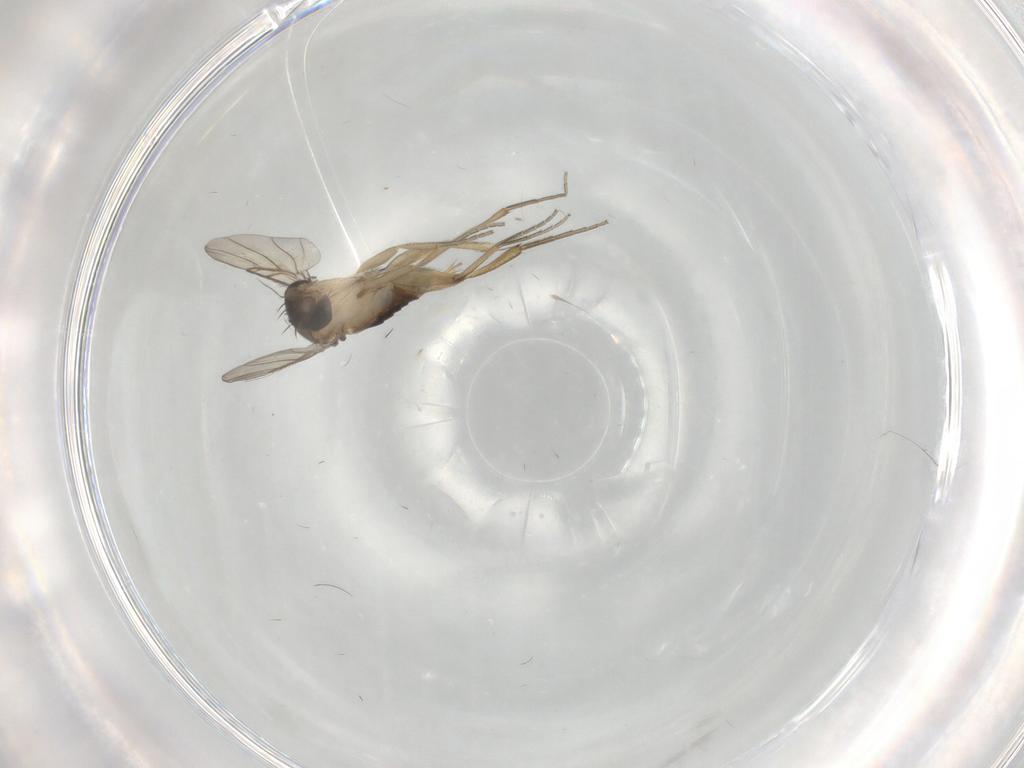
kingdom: Animalia
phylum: Arthropoda
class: Insecta
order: Diptera
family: Phoridae
